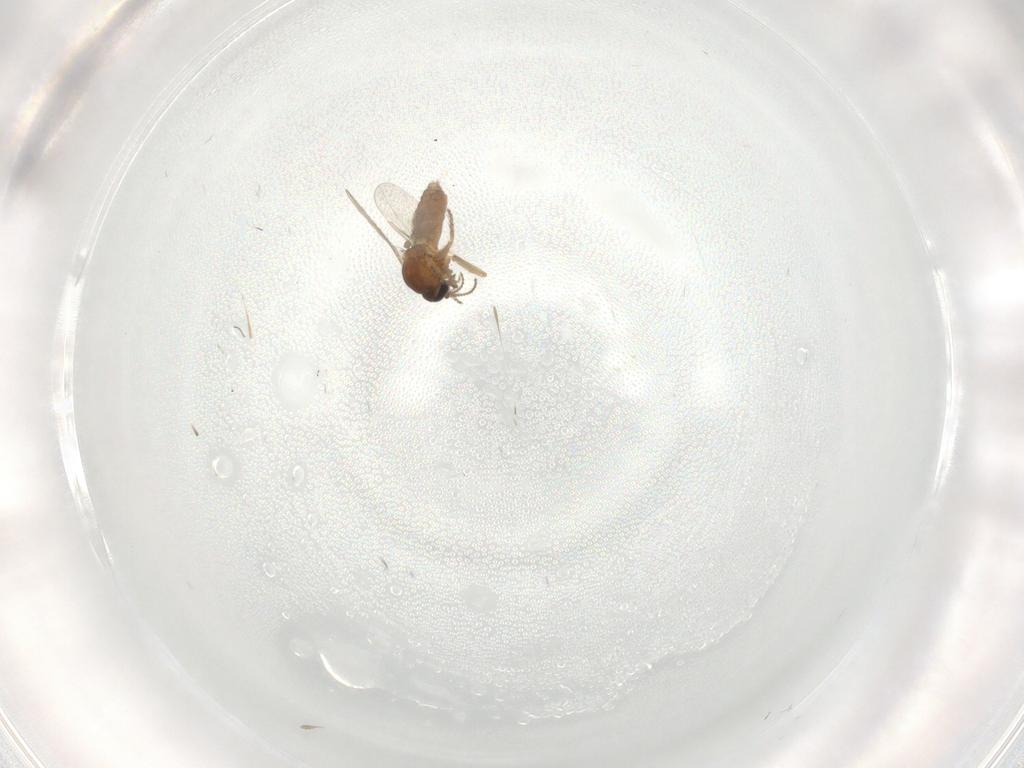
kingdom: Animalia
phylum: Arthropoda
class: Insecta
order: Diptera
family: Ceratopogonidae
